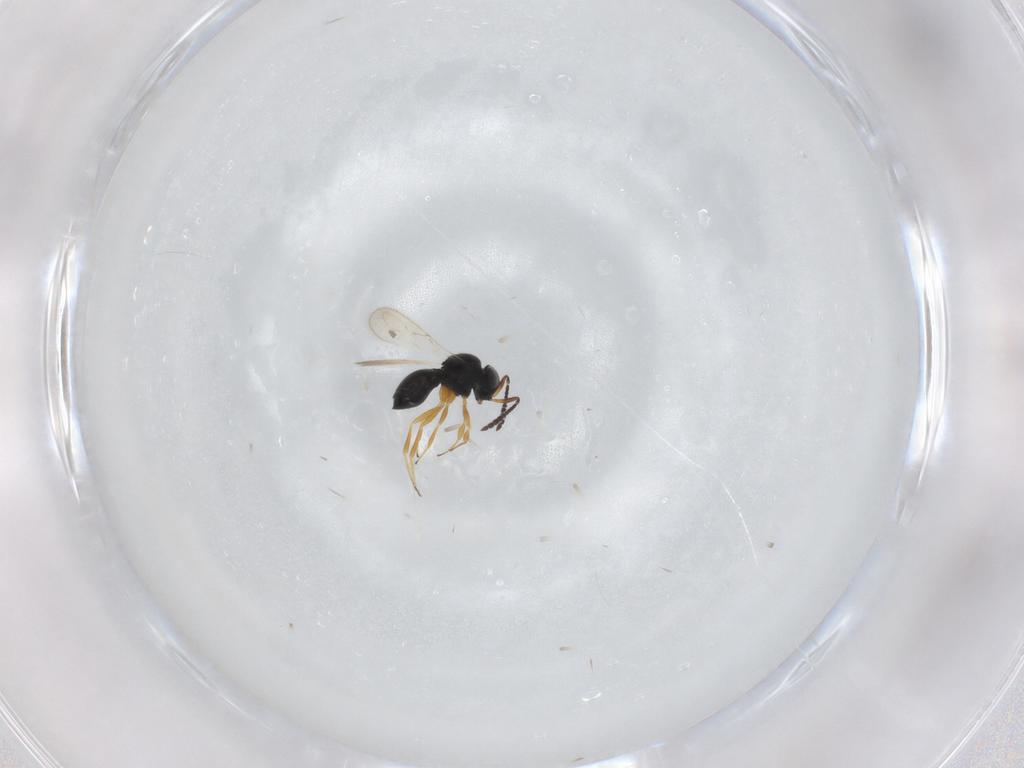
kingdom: Animalia
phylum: Arthropoda
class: Insecta
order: Hymenoptera
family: Scelionidae
